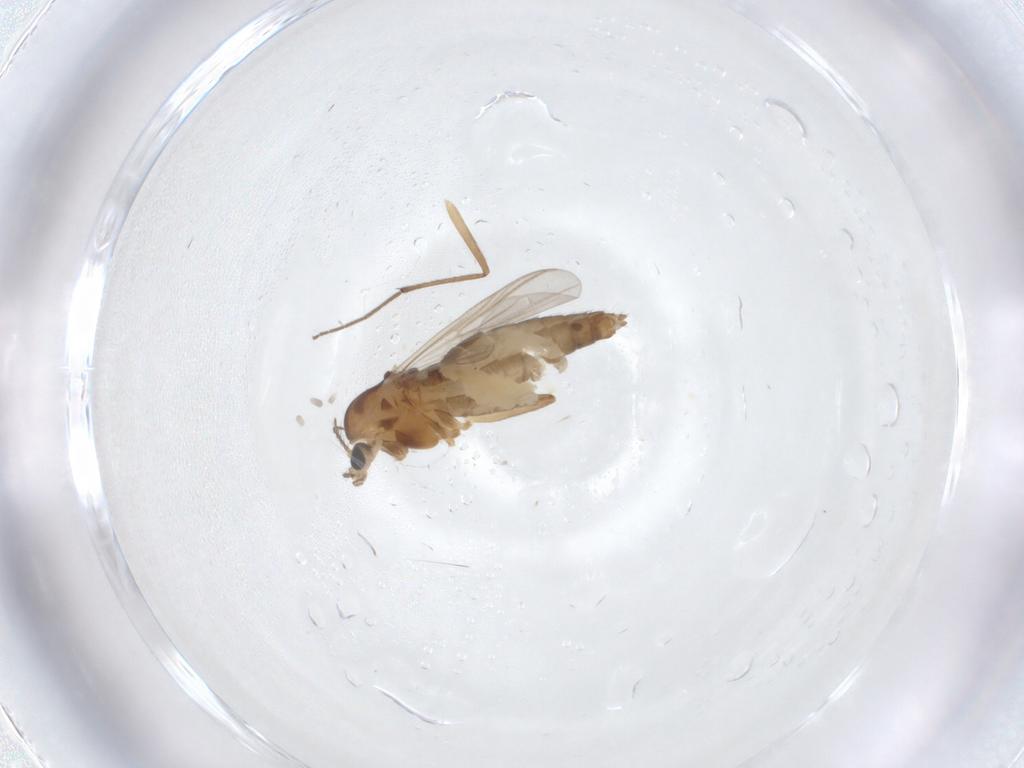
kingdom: Animalia
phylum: Arthropoda
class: Insecta
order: Diptera
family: Chironomidae
